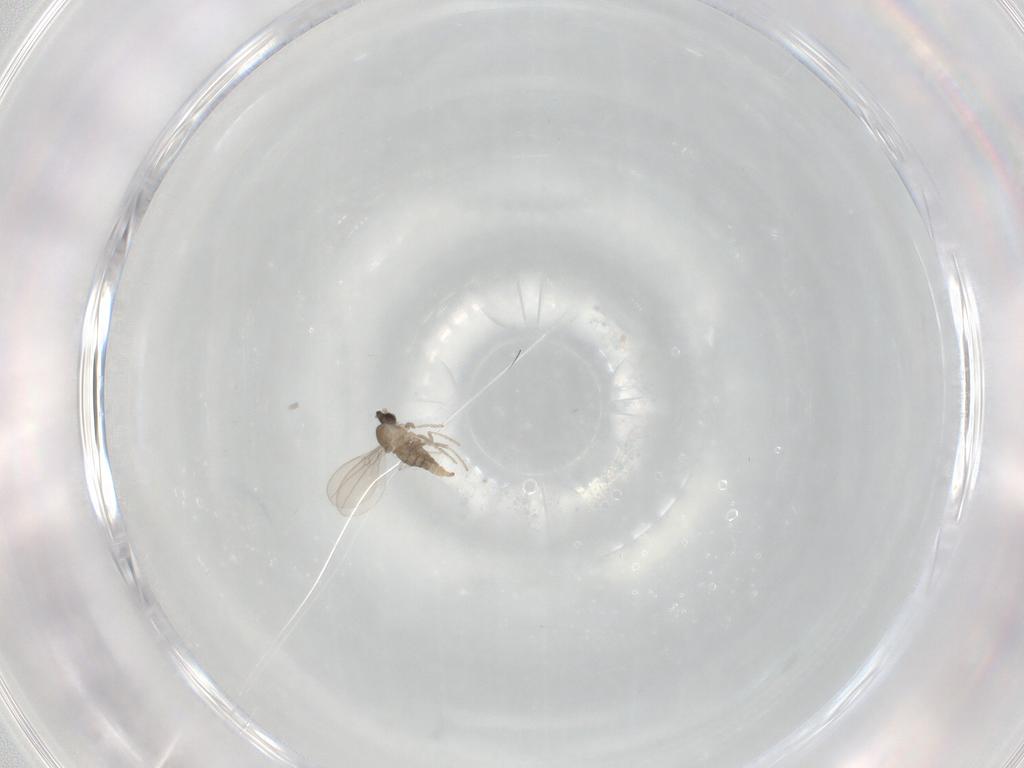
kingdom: Animalia
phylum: Arthropoda
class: Insecta
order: Diptera
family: Cecidomyiidae
